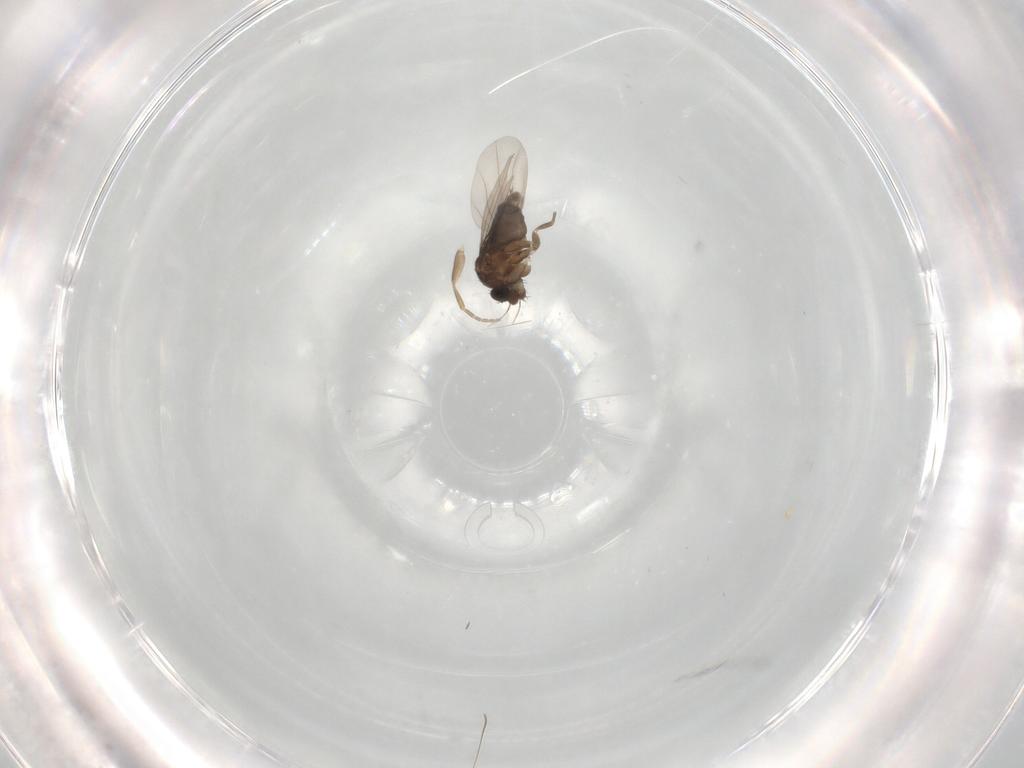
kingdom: Animalia
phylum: Arthropoda
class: Insecta
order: Diptera
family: Phoridae
